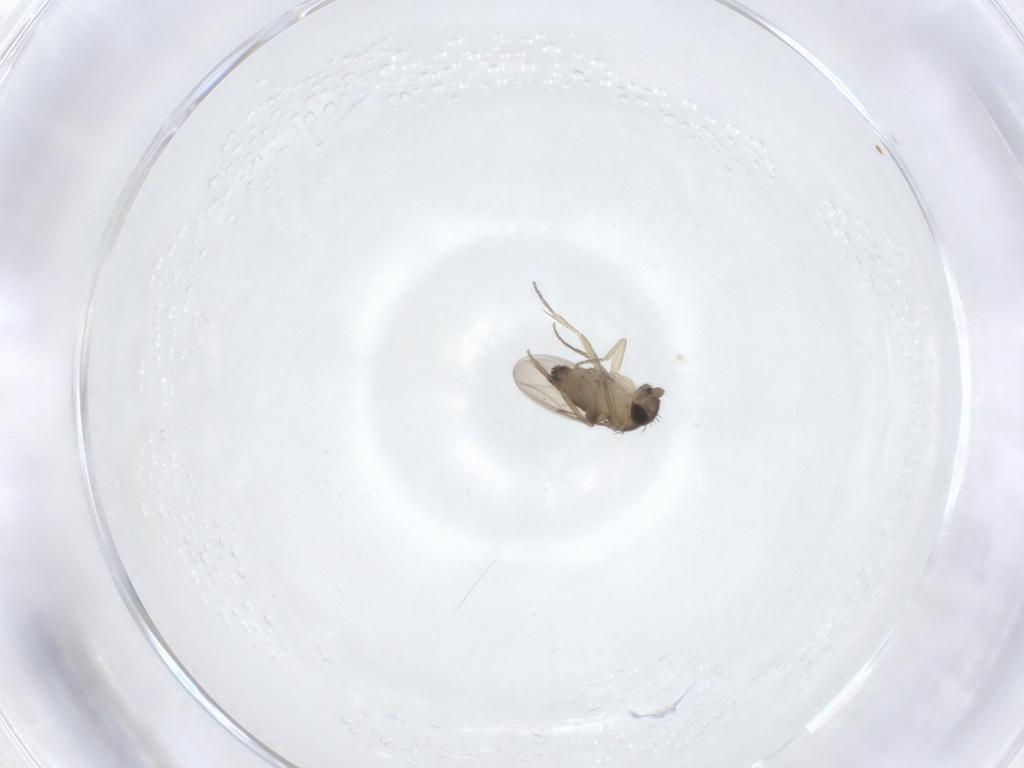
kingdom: Animalia
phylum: Arthropoda
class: Insecta
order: Diptera
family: Phoridae
